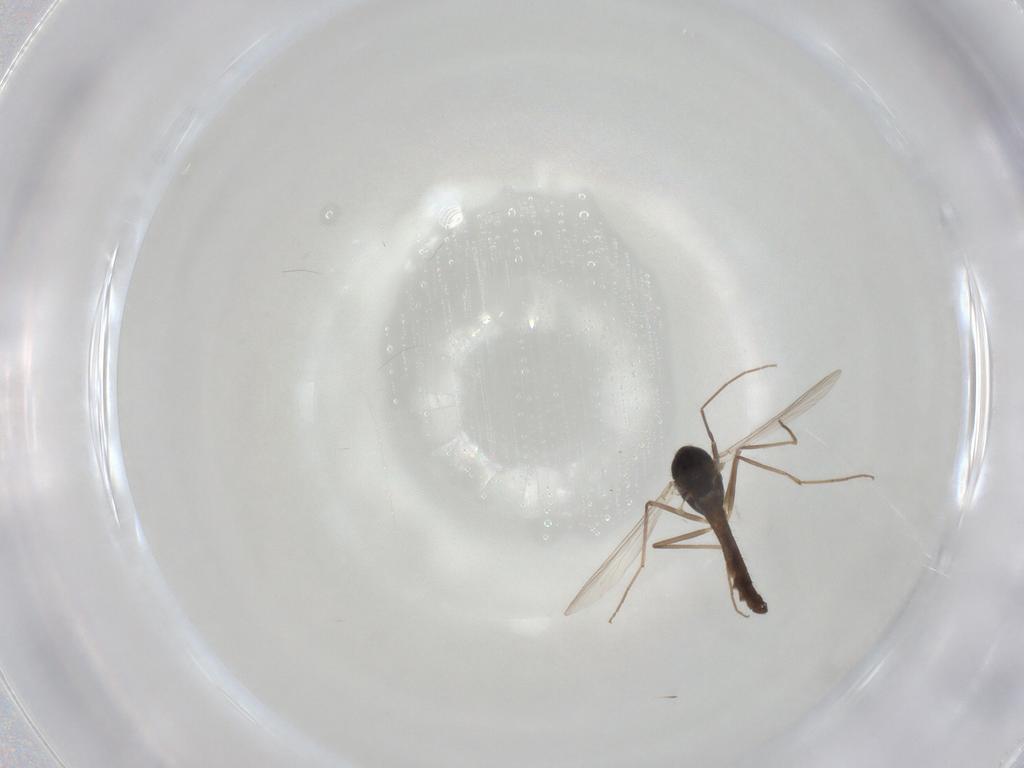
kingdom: Animalia
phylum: Arthropoda
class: Insecta
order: Diptera
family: Chironomidae
